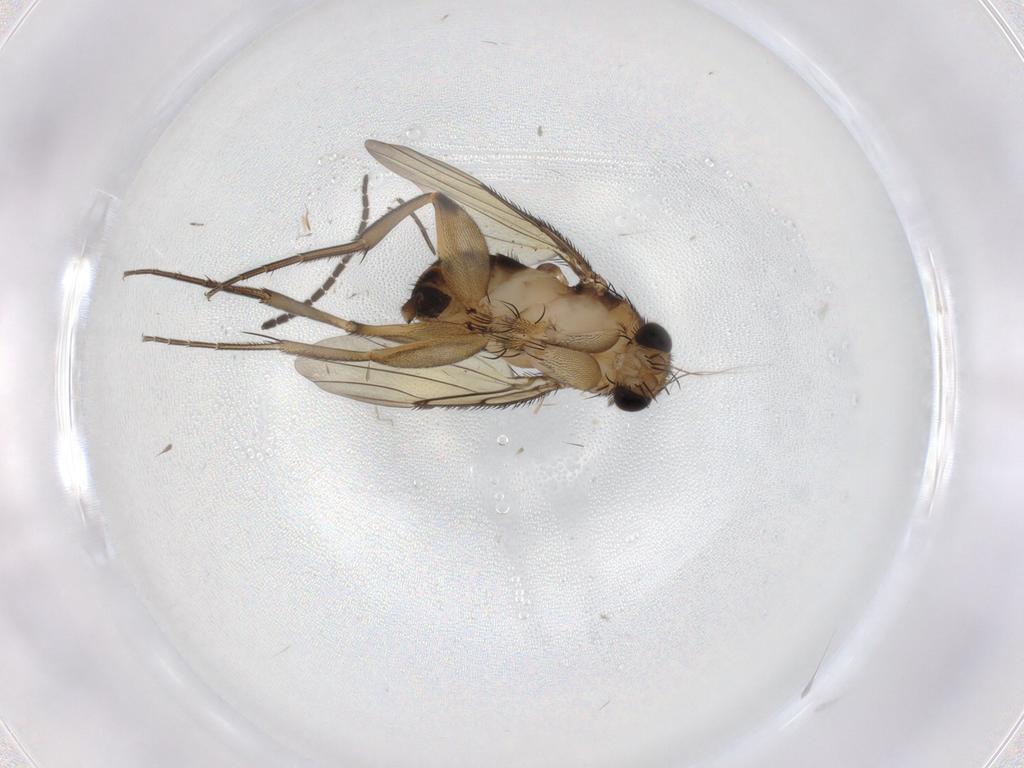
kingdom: Animalia
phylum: Arthropoda
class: Insecta
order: Diptera
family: Phoridae
